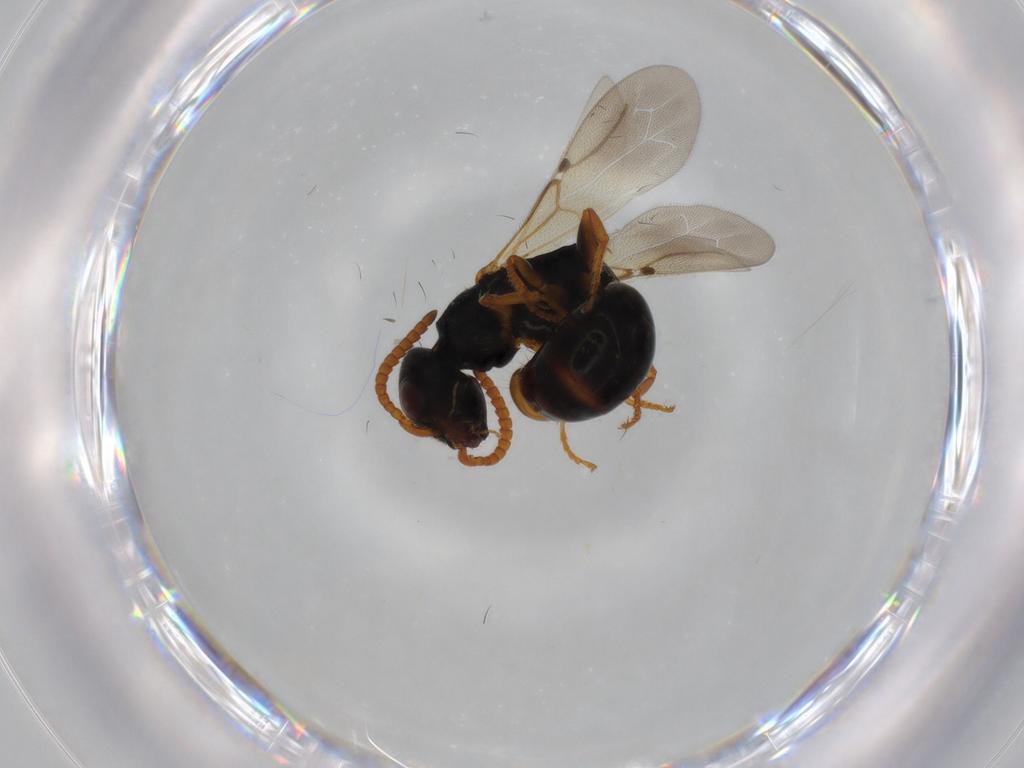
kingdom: Animalia
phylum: Arthropoda
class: Insecta
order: Hymenoptera
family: Bethylidae
